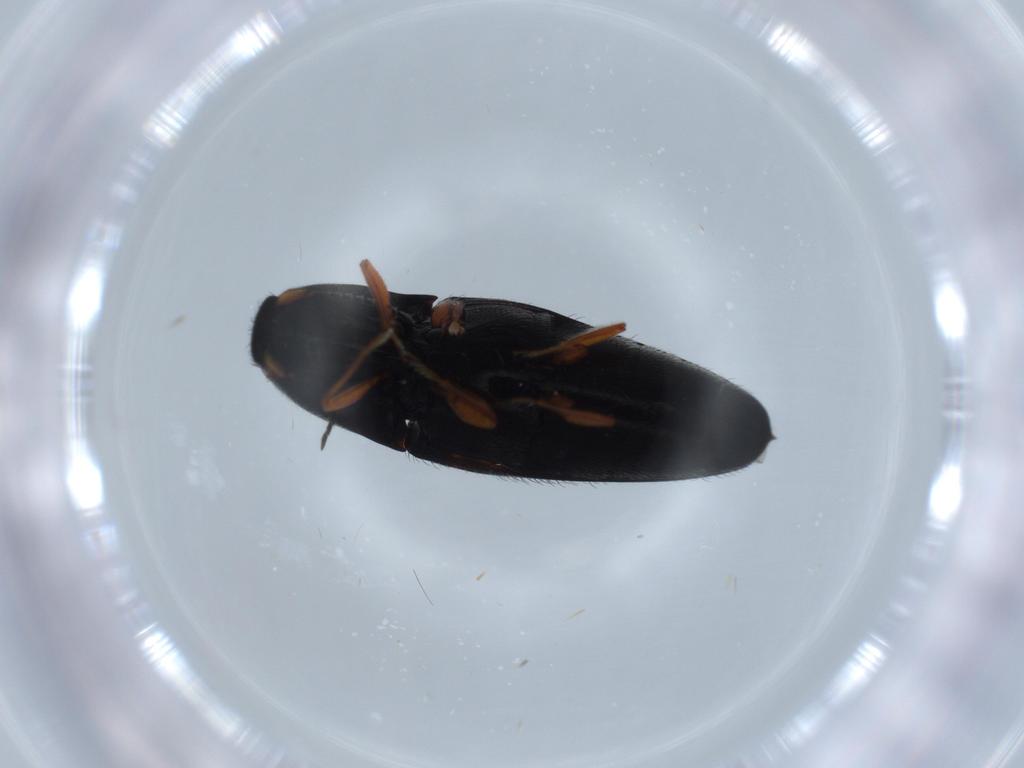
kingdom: Animalia
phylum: Arthropoda
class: Insecta
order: Coleoptera
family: Elateridae
